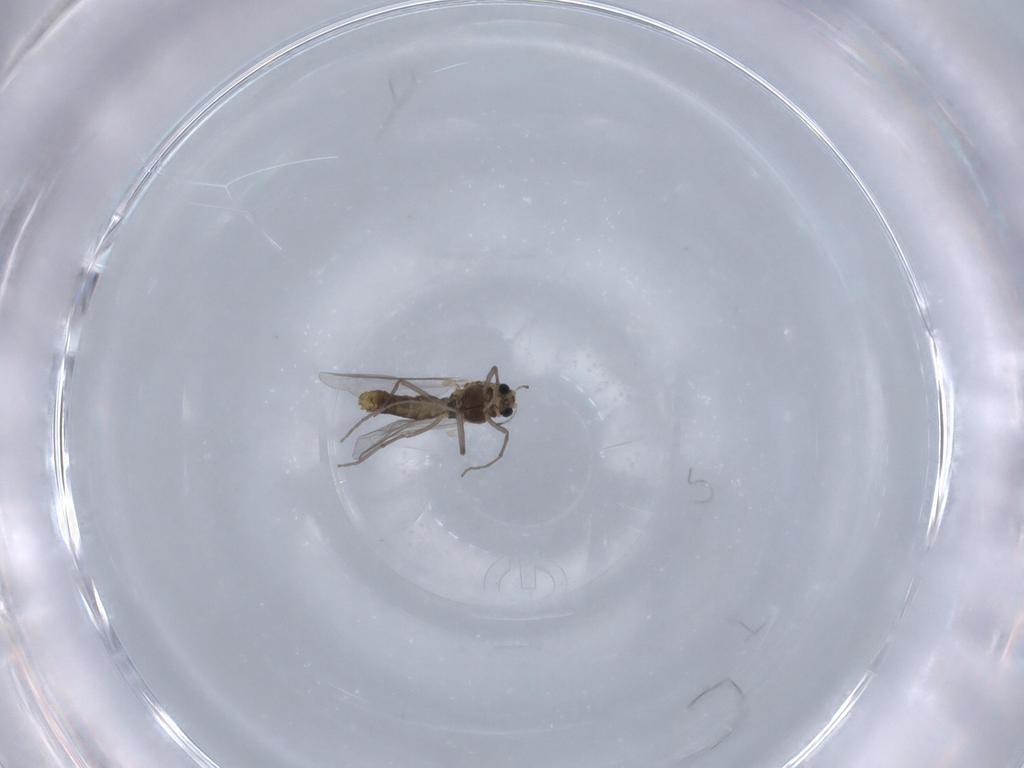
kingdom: Animalia
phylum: Arthropoda
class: Insecta
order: Diptera
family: Chironomidae
